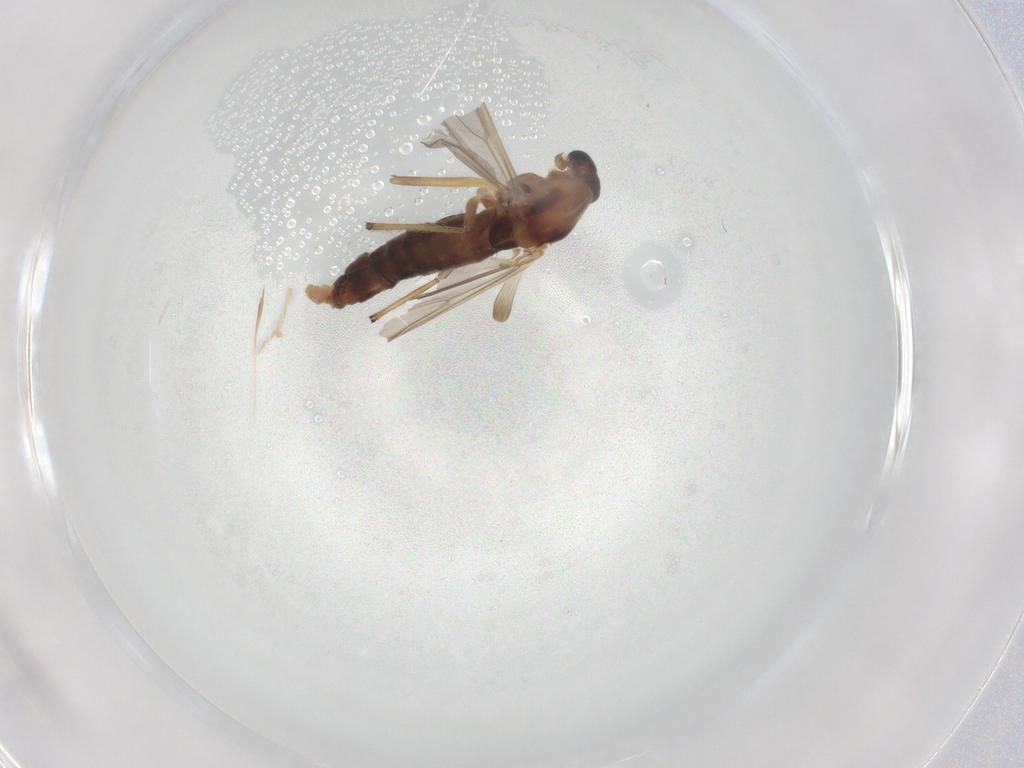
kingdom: Animalia
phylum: Arthropoda
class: Insecta
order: Diptera
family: Chironomidae
